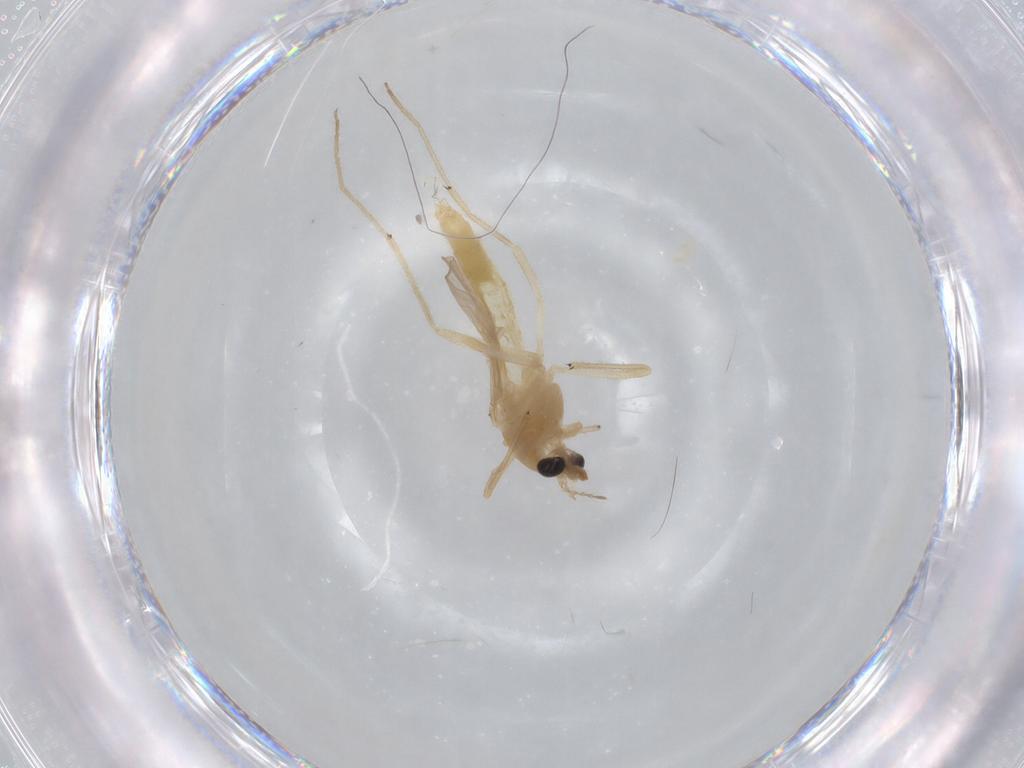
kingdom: Animalia
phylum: Arthropoda
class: Insecta
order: Diptera
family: Chironomidae
